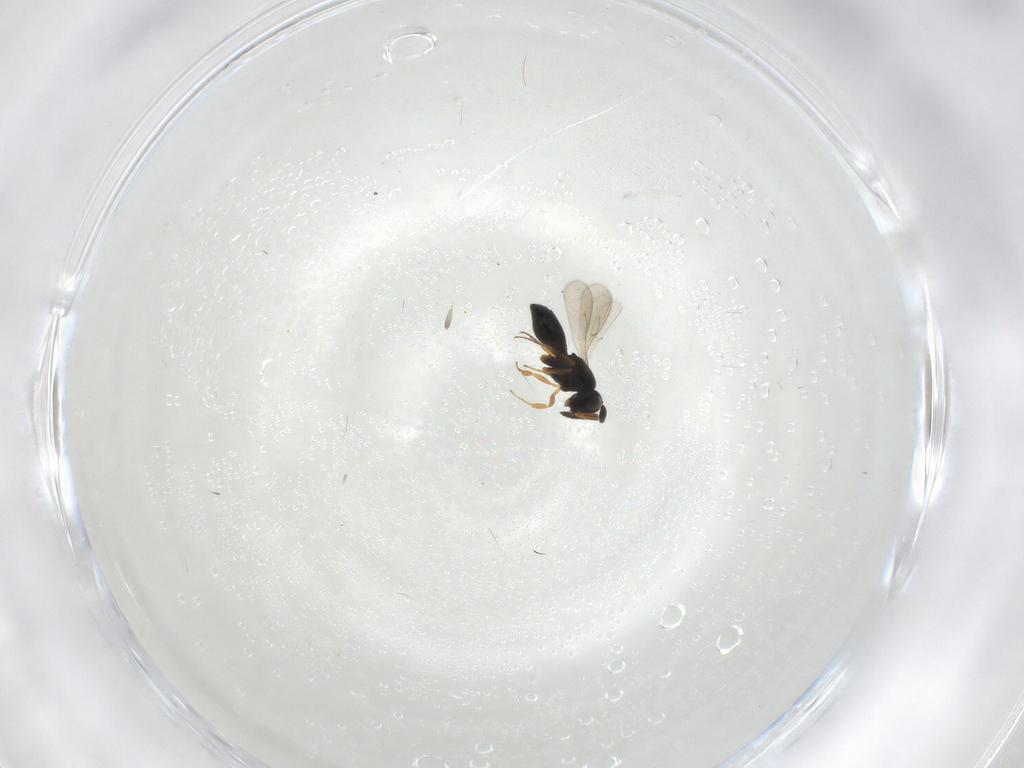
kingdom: Animalia
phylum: Arthropoda
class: Insecta
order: Hymenoptera
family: Scelionidae
